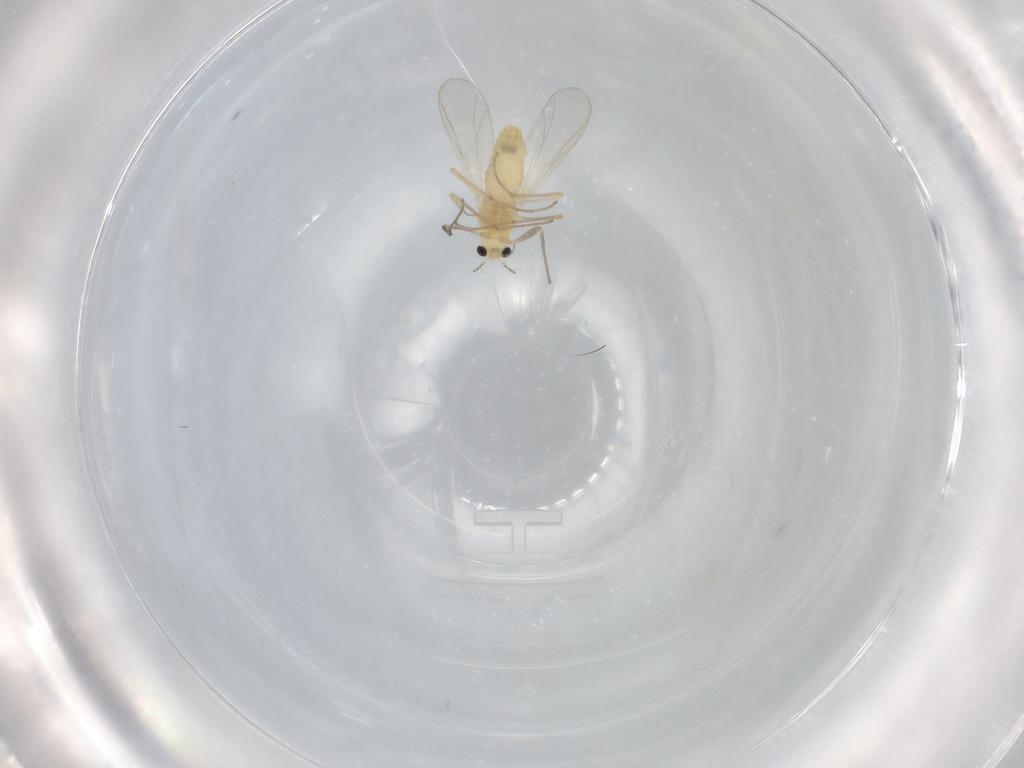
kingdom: Animalia
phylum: Arthropoda
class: Insecta
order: Diptera
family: Chironomidae
